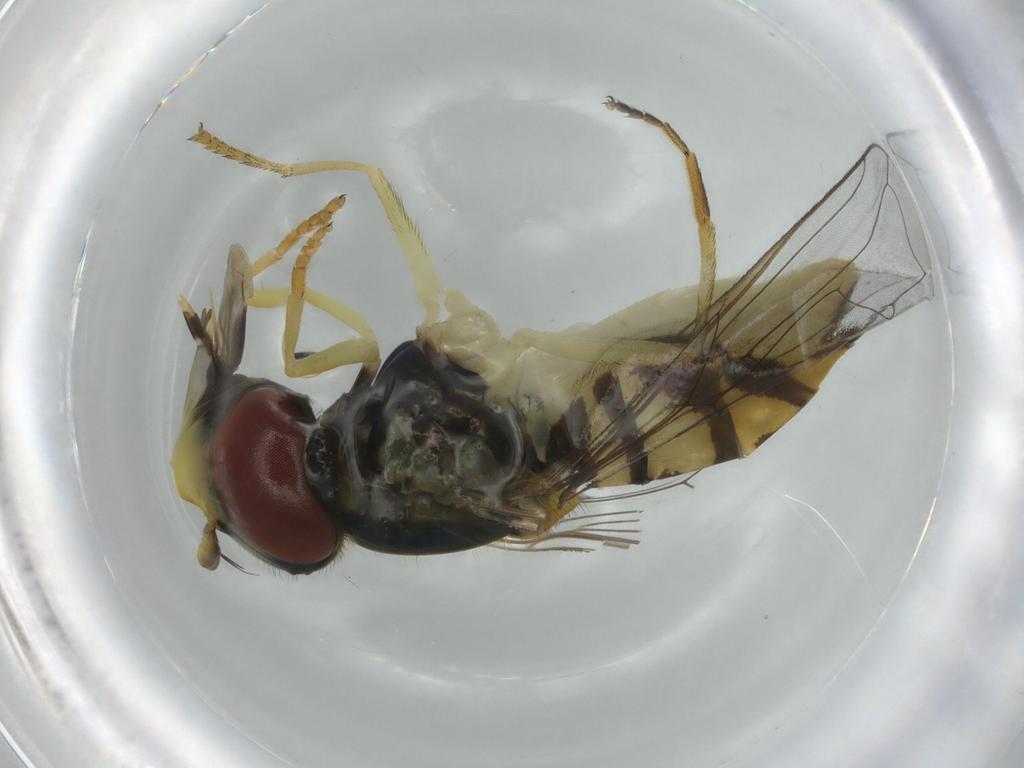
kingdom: Animalia
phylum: Arthropoda
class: Insecta
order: Diptera
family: Syrphidae
